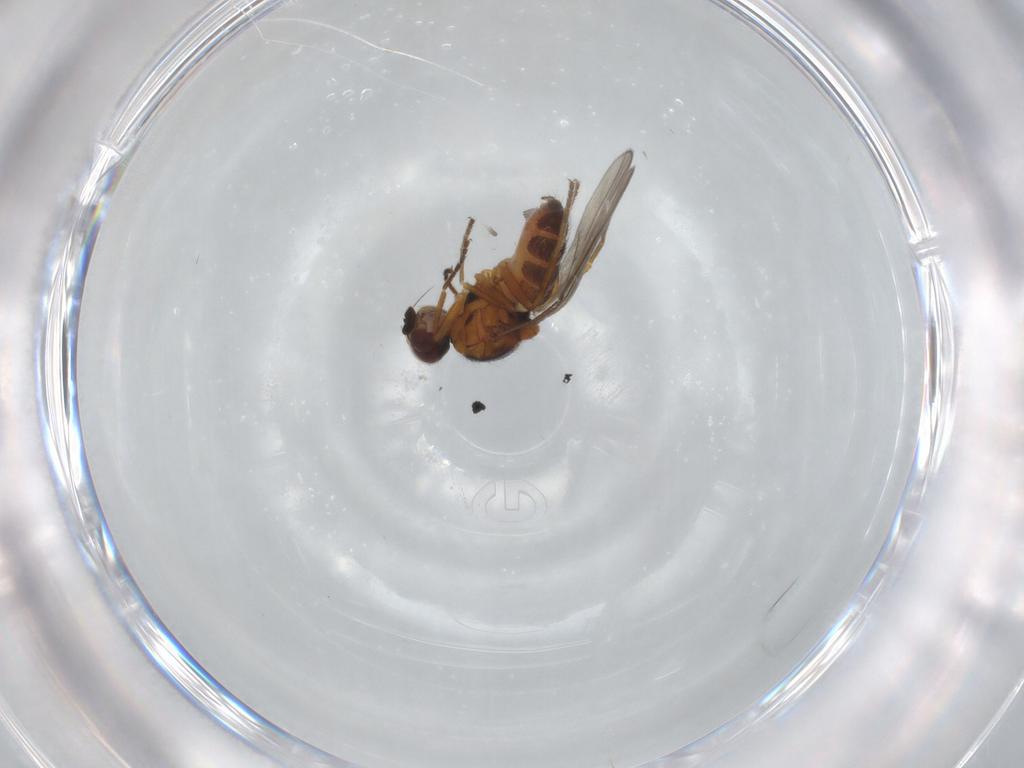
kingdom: Animalia
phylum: Arthropoda
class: Insecta
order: Diptera
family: Chloropidae
